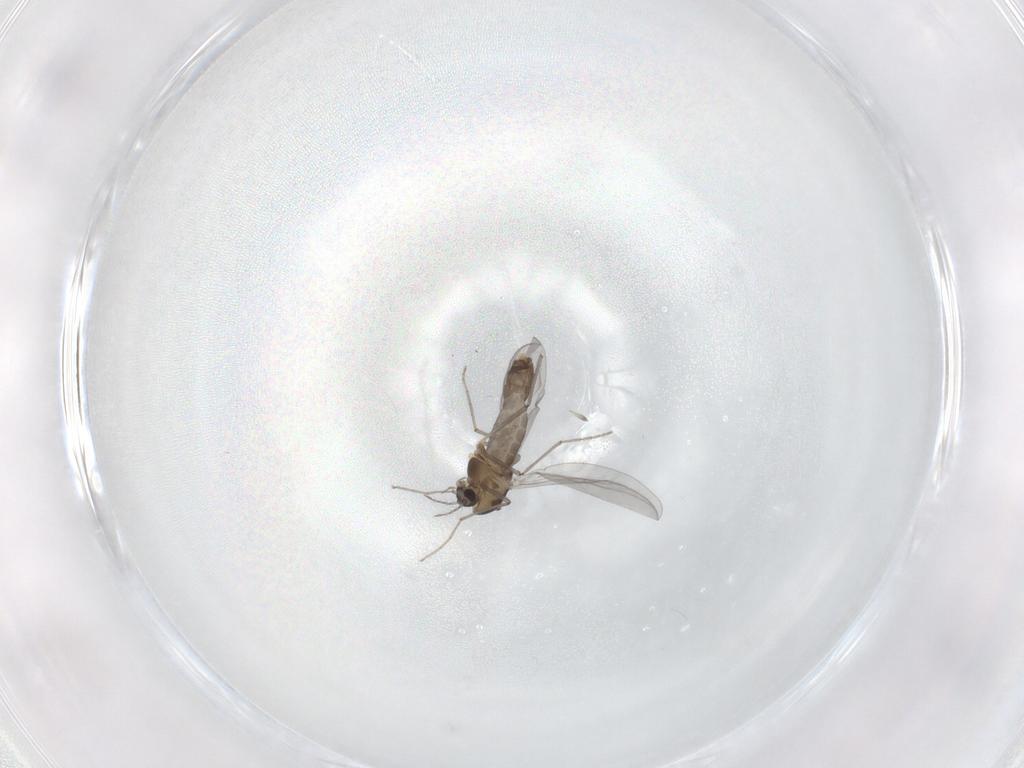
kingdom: Animalia
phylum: Arthropoda
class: Insecta
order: Diptera
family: Chironomidae
